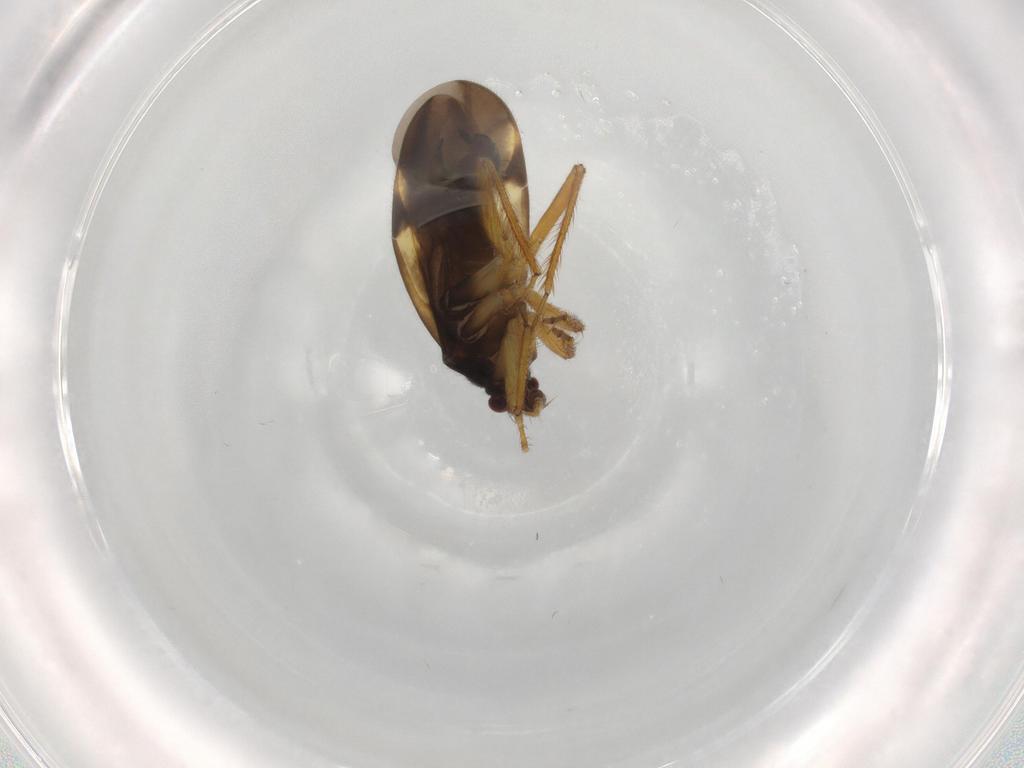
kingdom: Animalia
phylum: Arthropoda
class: Insecta
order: Hemiptera
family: Ceratocombidae
